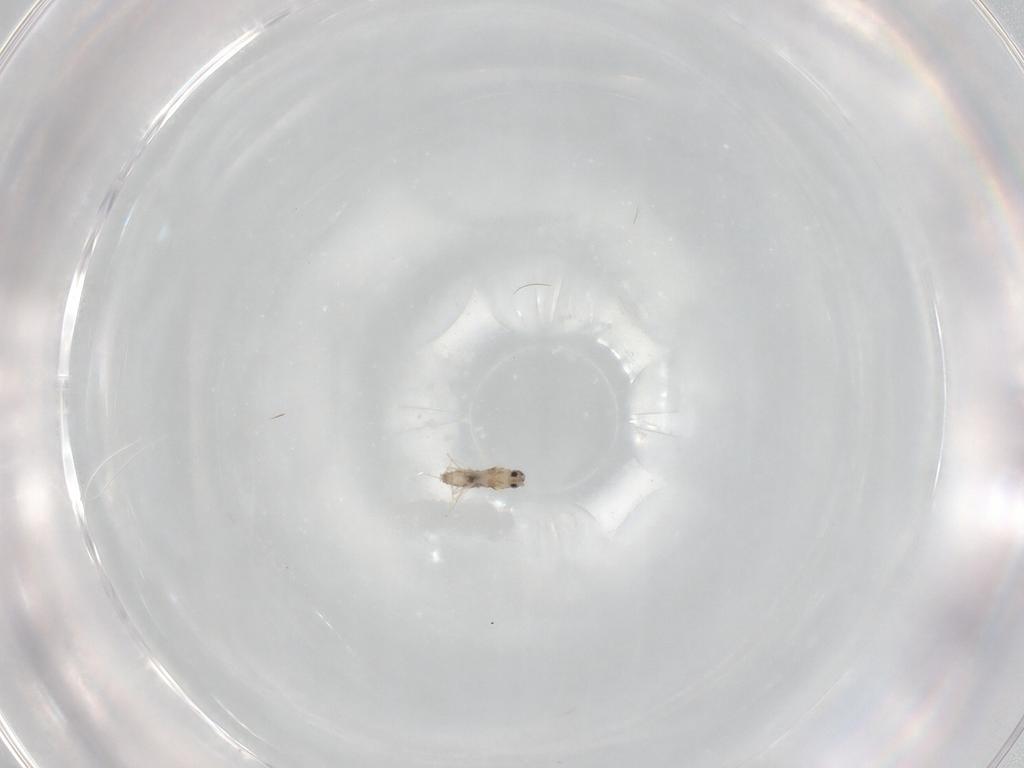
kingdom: Animalia
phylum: Arthropoda
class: Insecta
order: Diptera
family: Cecidomyiidae
